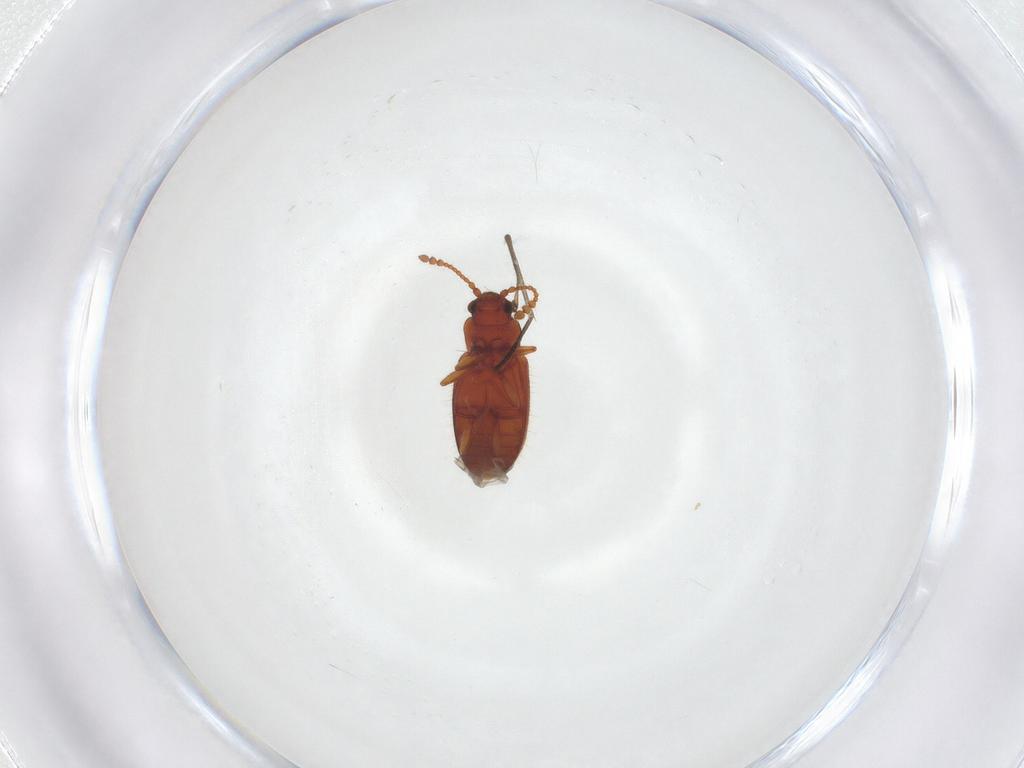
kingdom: Animalia
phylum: Arthropoda
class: Insecta
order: Coleoptera
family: Cryptophagidae
